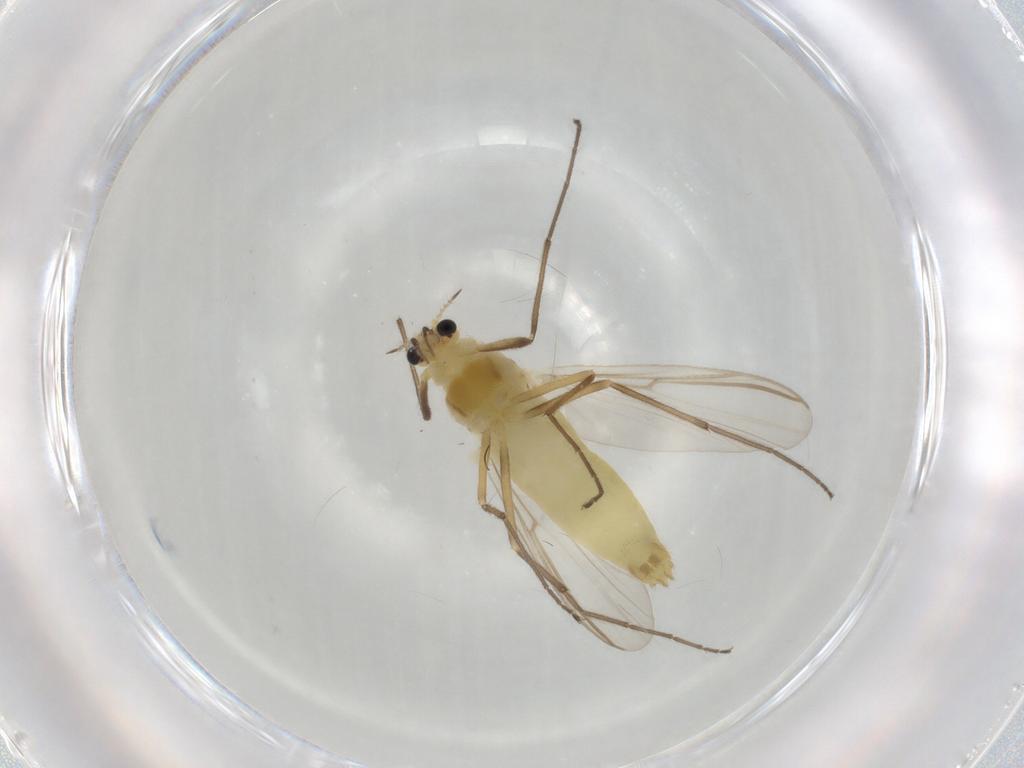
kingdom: Animalia
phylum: Arthropoda
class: Insecta
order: Diptera
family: Hybotidae
